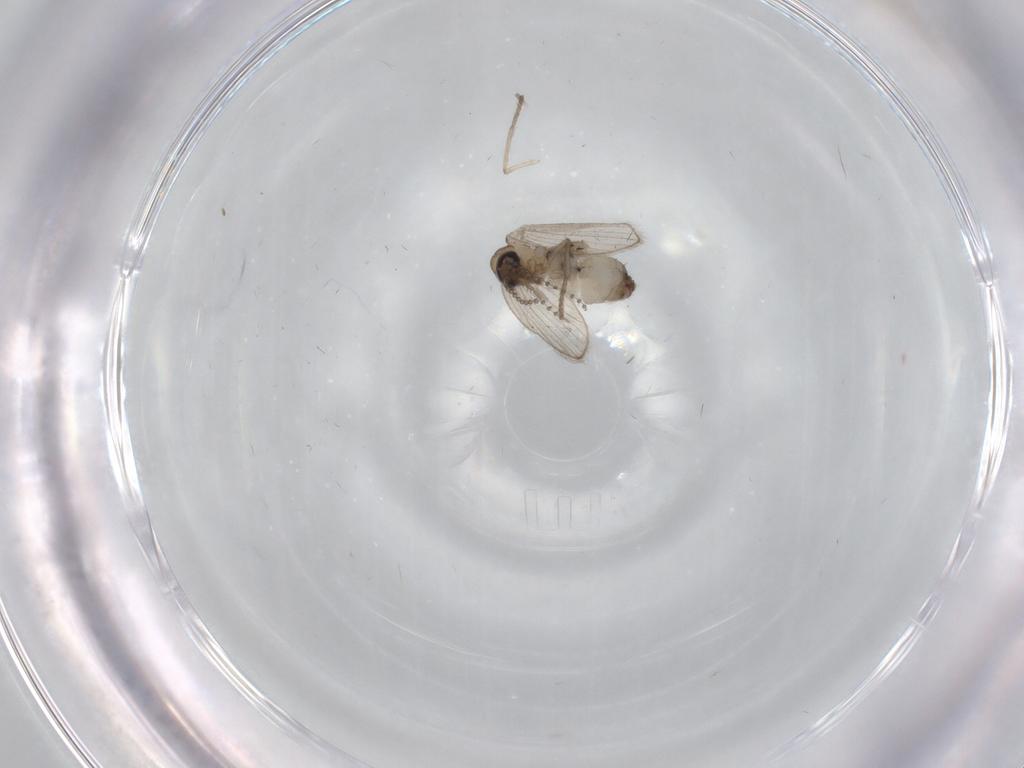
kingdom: Animalia
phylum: Arthropoda
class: Insecta
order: Diptera
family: Psychodidae
